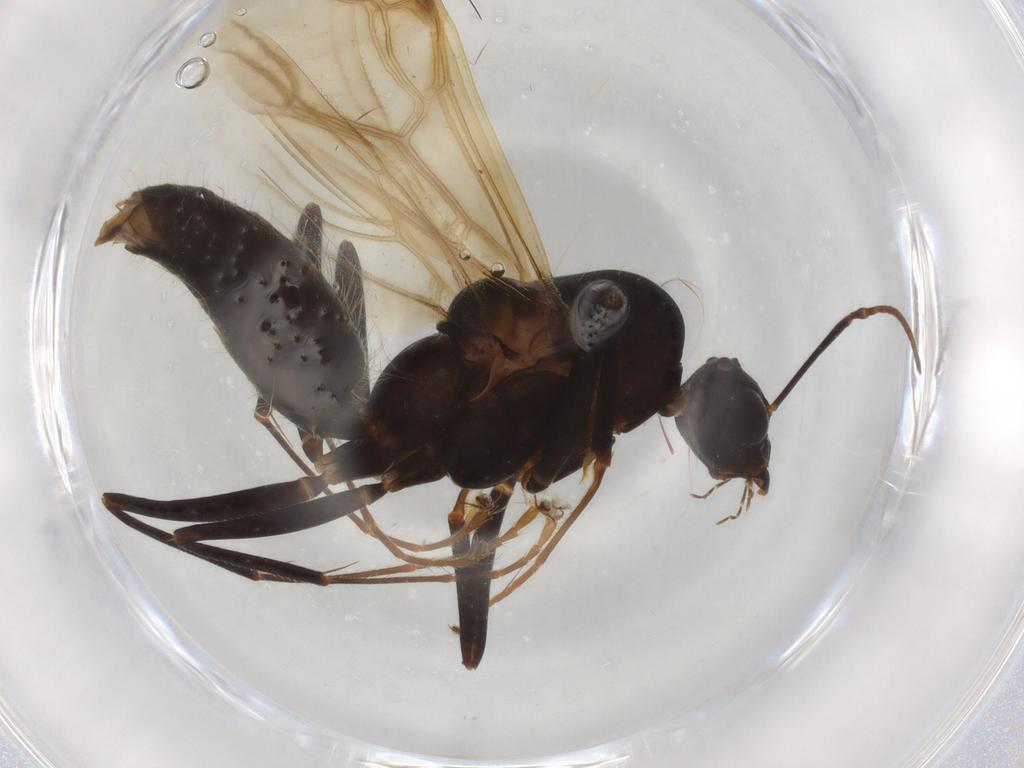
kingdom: Animalia
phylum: Arthropoda
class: Insecta
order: Hymenoptera
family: Formicidae
